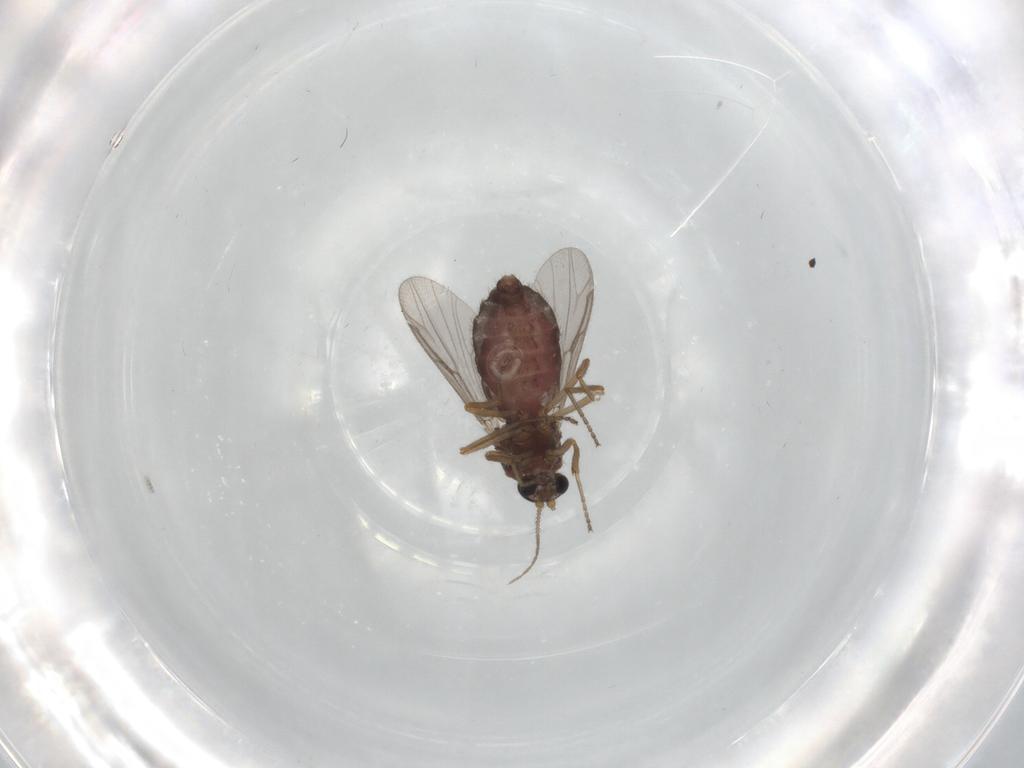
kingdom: Animalia
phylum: Arthropoda
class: Insecta
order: Diptera
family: Ceratopogonidae
